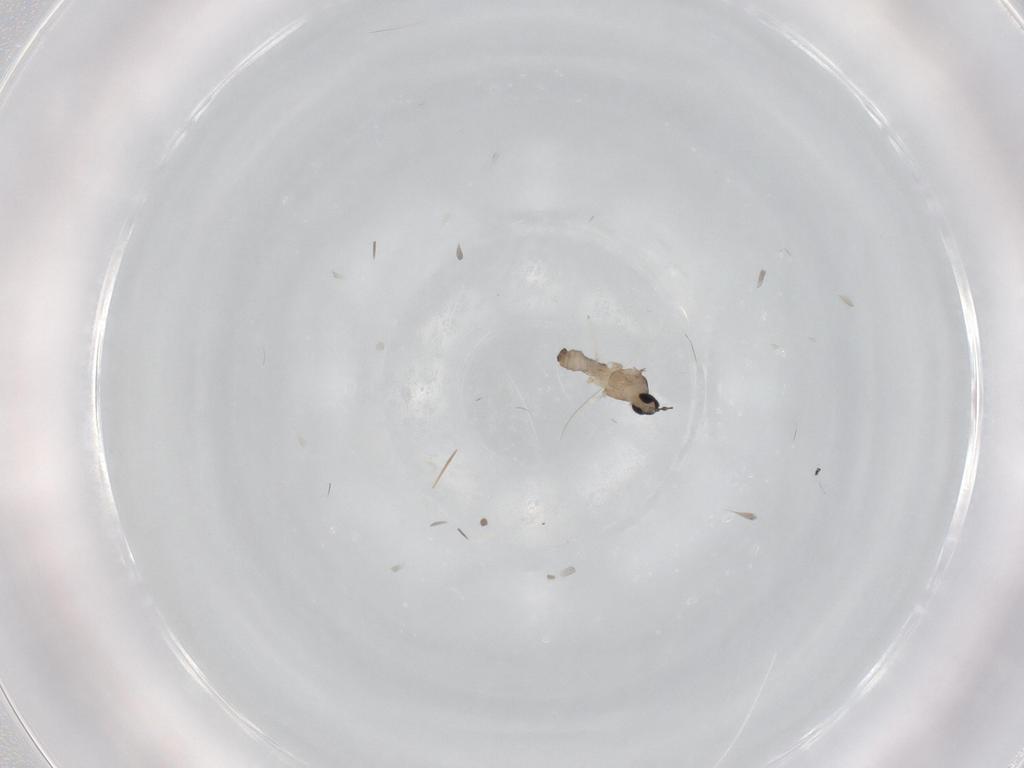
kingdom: Animalia
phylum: Arthropoda
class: Insecta
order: Diptera
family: Cecidomyiidae
